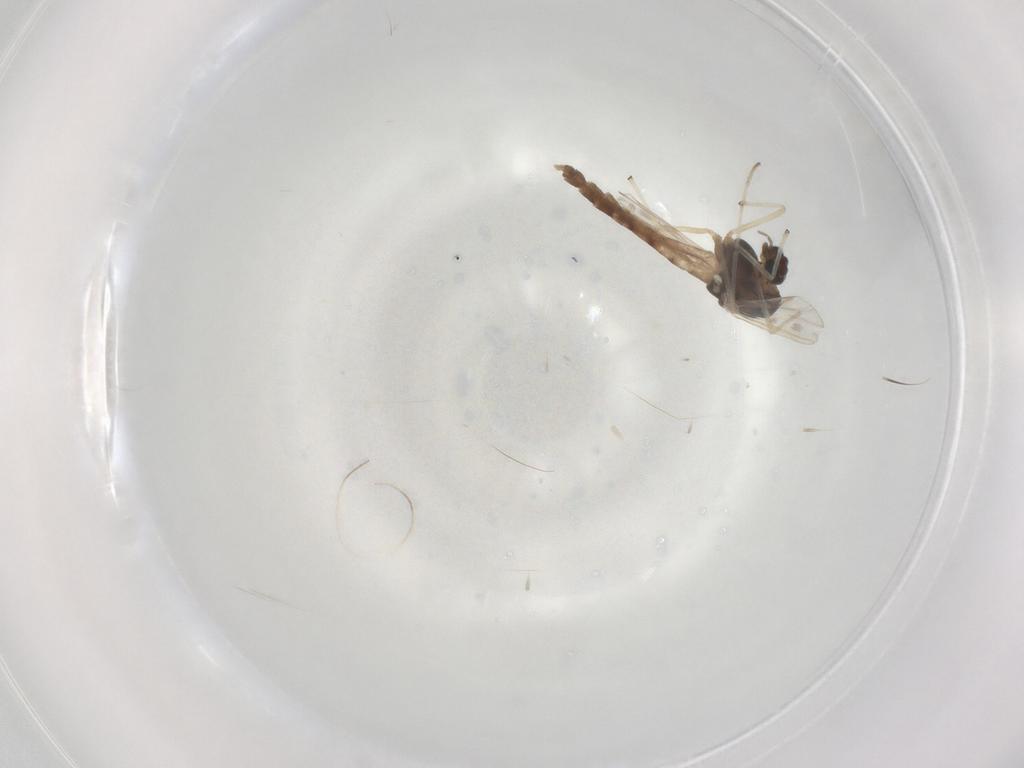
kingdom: Animalia
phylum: Arthropoda
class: Insecta
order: Diptera
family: Chironomidae
